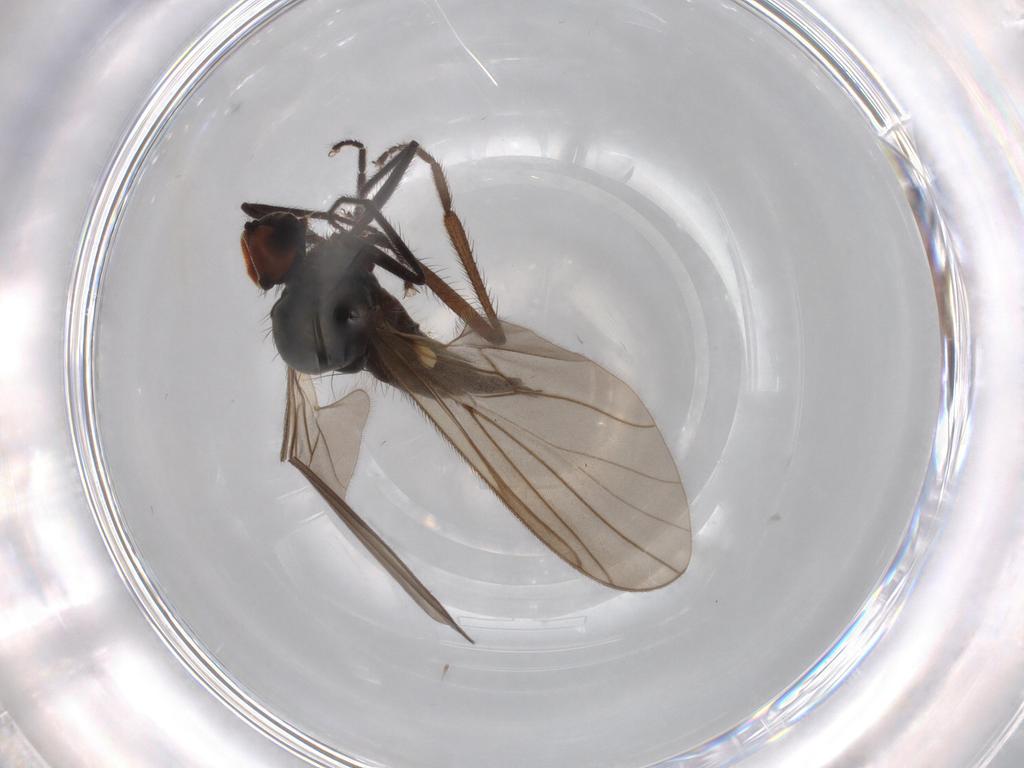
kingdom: Animalia
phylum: Arthropoda
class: Insecta
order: Diptera
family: Hybotidae
